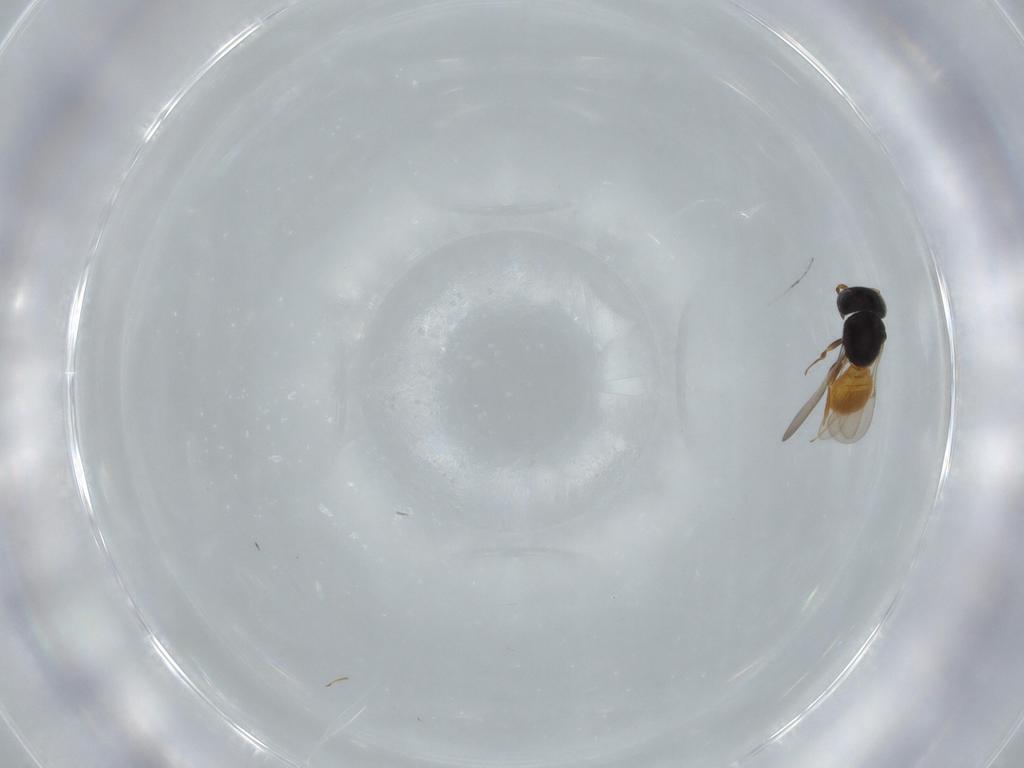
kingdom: Animalia
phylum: Arthropoda
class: Insecta
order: Hymenoptera
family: Scelionidae
